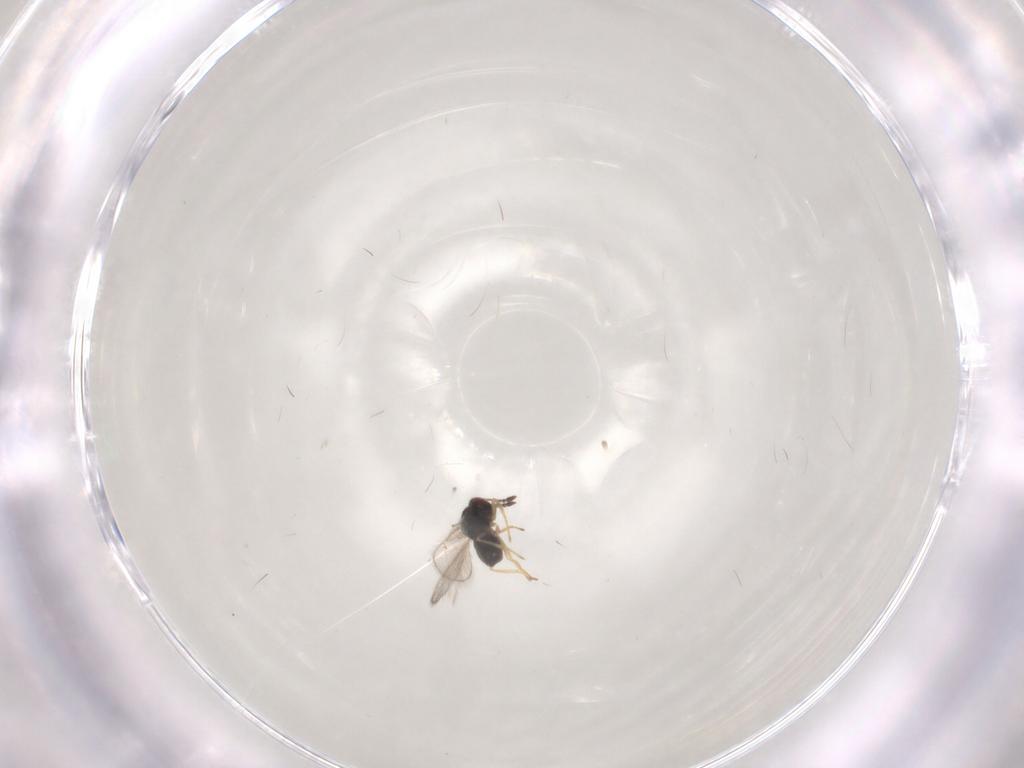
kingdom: Animalia
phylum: Arthropoda
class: Insecta
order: Hymenoptera
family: Tetracampidae
